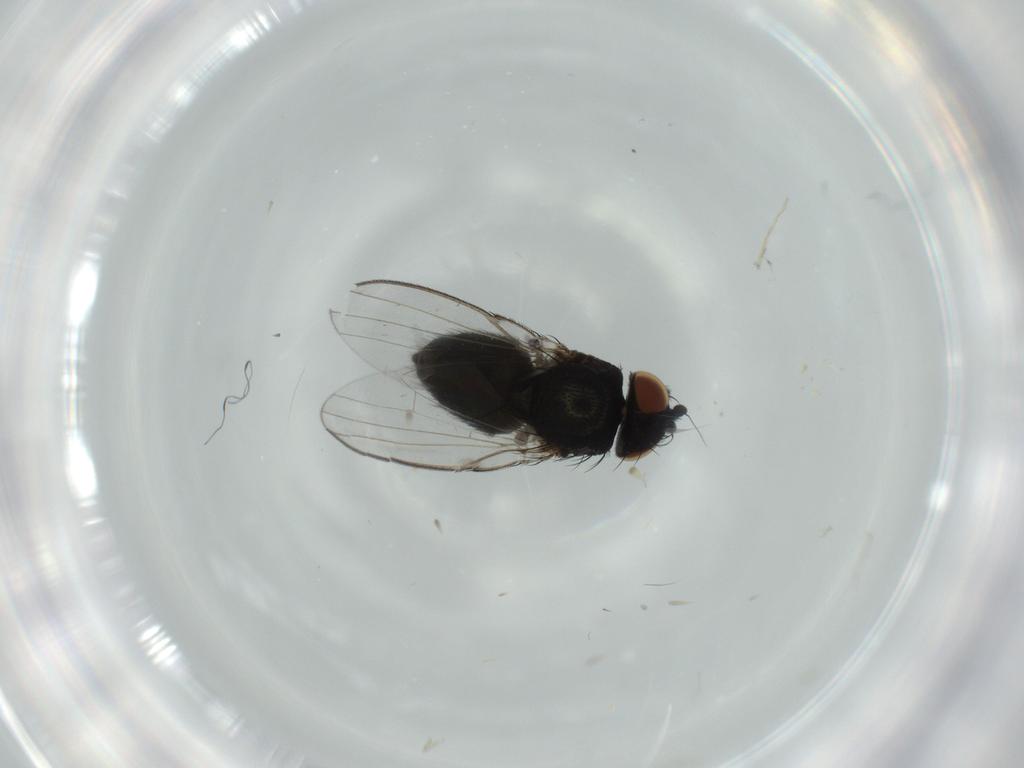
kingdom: Animalia
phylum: Arthropoda
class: Insecta
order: Diptera
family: Milichiidae
